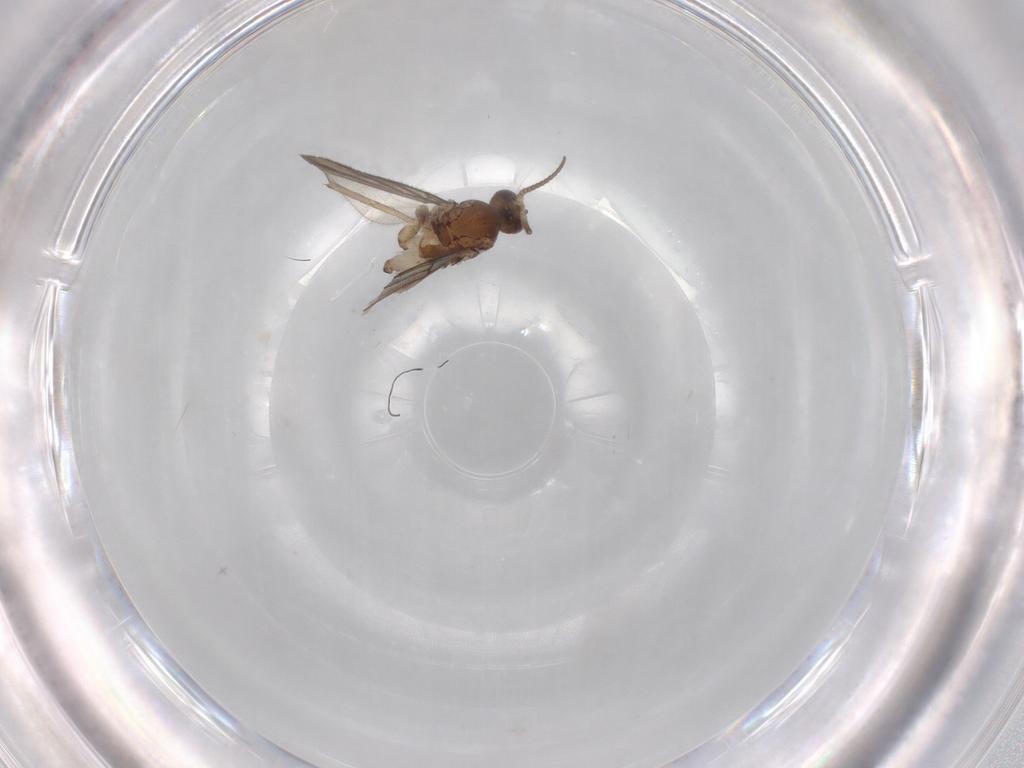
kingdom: Animalia
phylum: Arthropoda
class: Insecta
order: Diptera
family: Mycetophilidae
